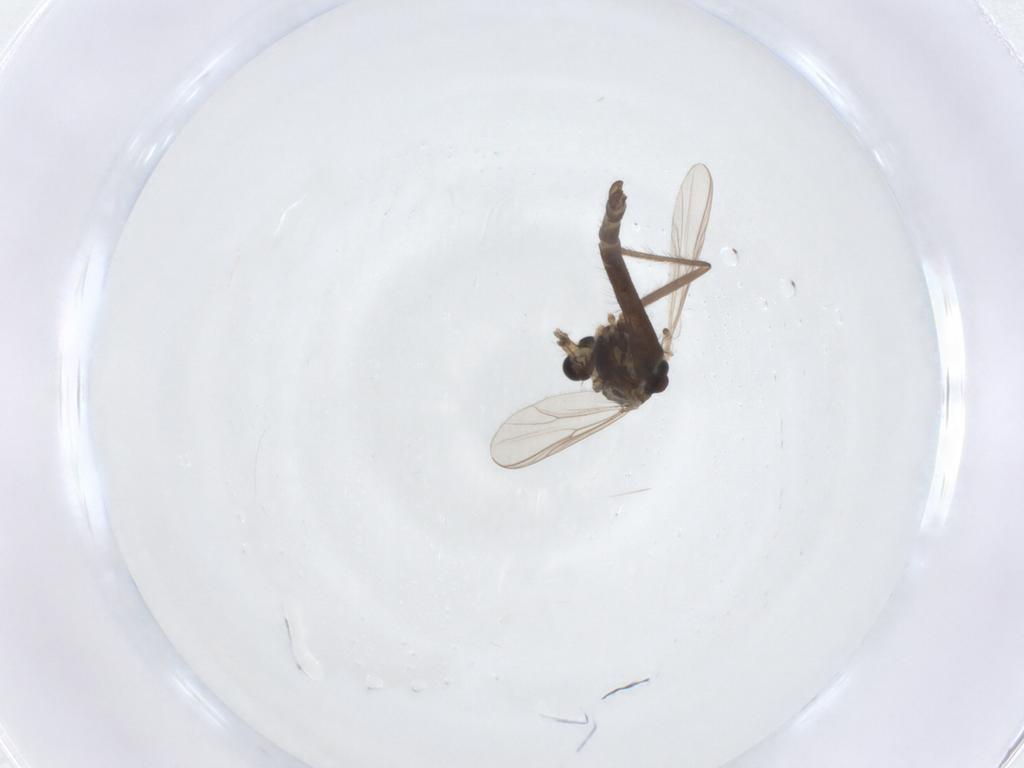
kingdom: Animalia
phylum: Arthropoda
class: Insecta
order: Diptera
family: Chironomidae
